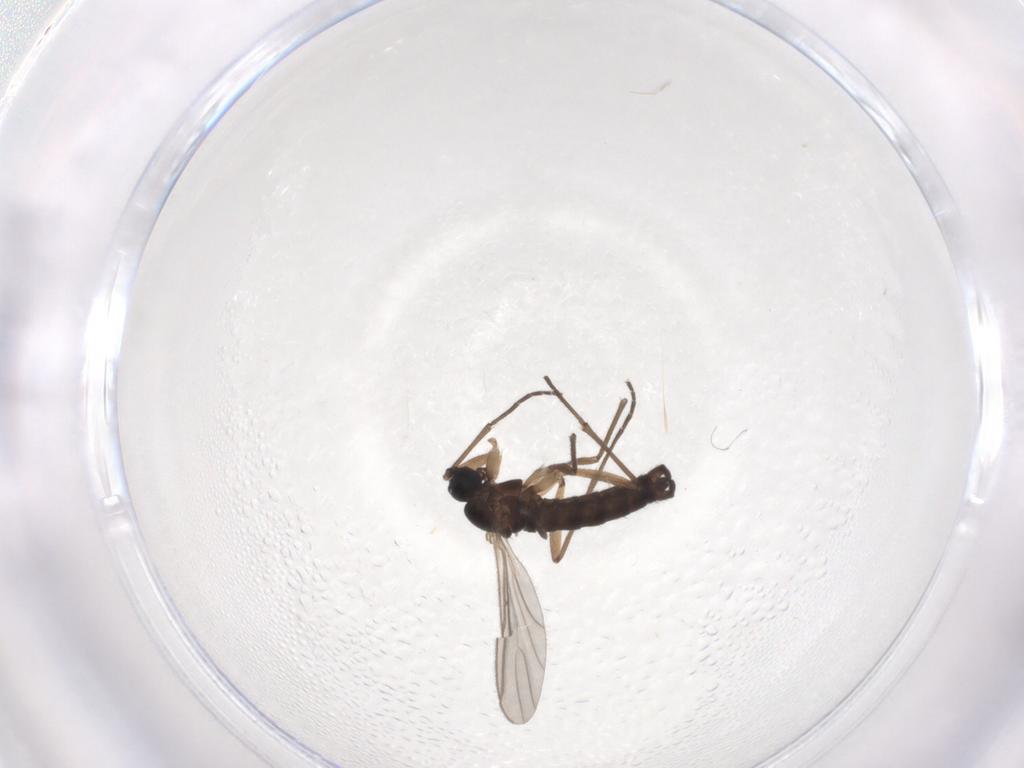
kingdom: Animalia
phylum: Arthropoda
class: Insecta
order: Diptera
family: Sciaridae
